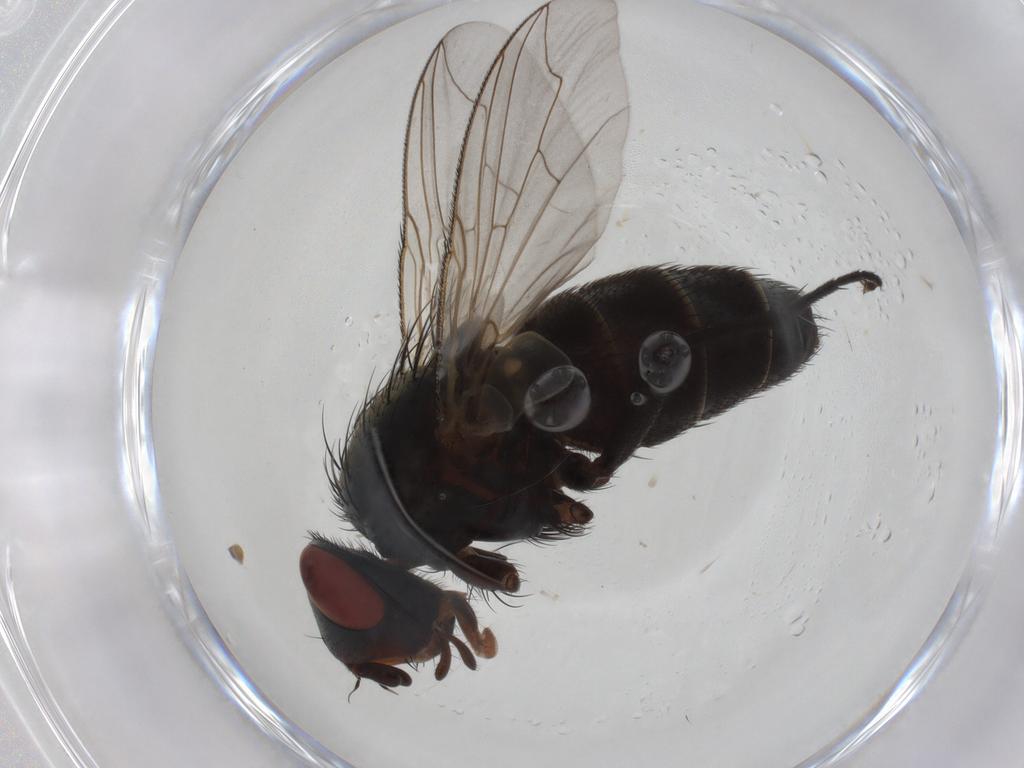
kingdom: Animalia
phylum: Arthropoda
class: Insecta
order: Diptera
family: Sarcophagidae
